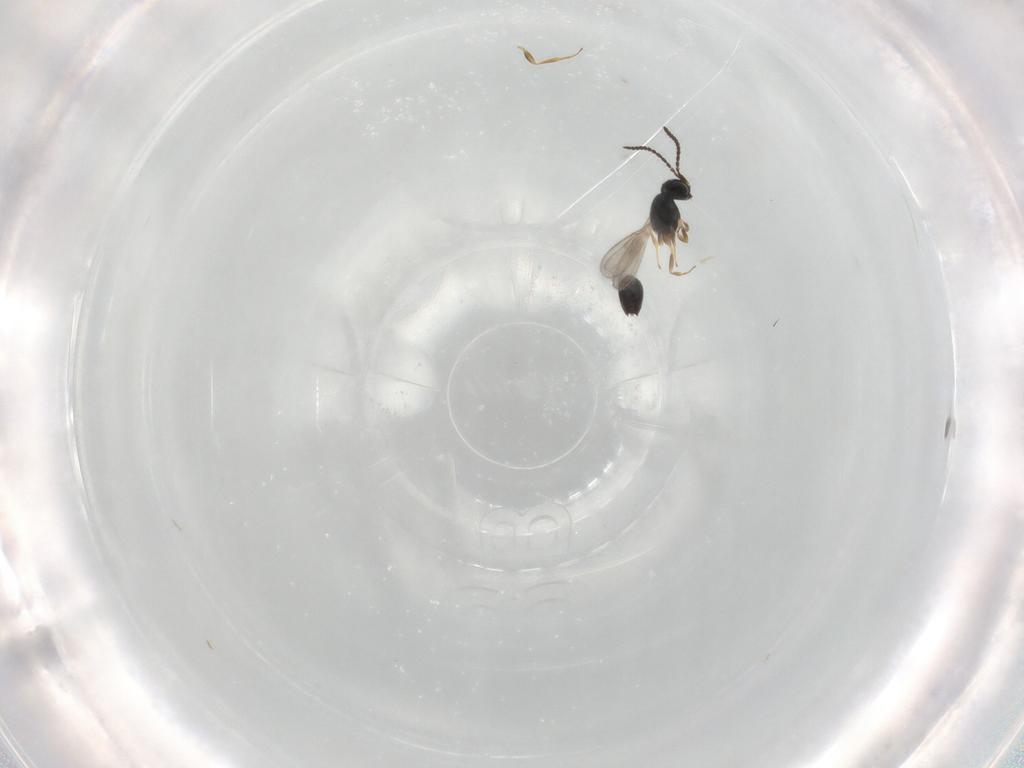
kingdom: Animalia
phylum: Arthropoda
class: Insecta
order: Hymenoptera
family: Scelionidae
